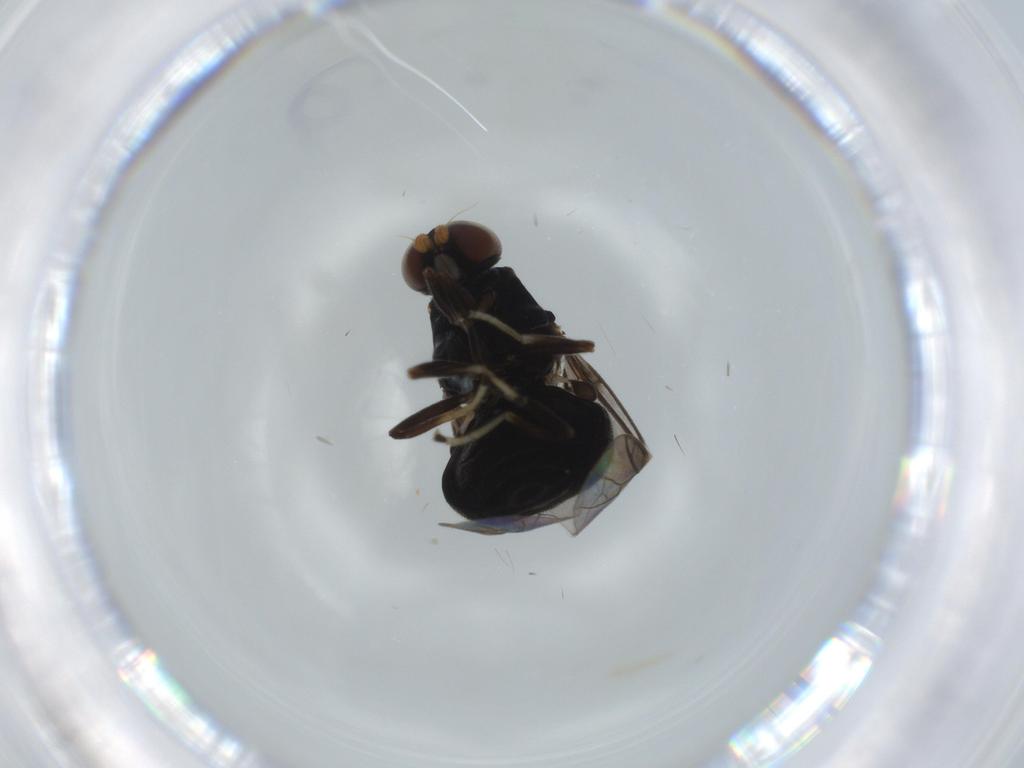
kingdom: Animalia
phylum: Arthropoda
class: Insecta
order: Diptera
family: Stratiomyidae
